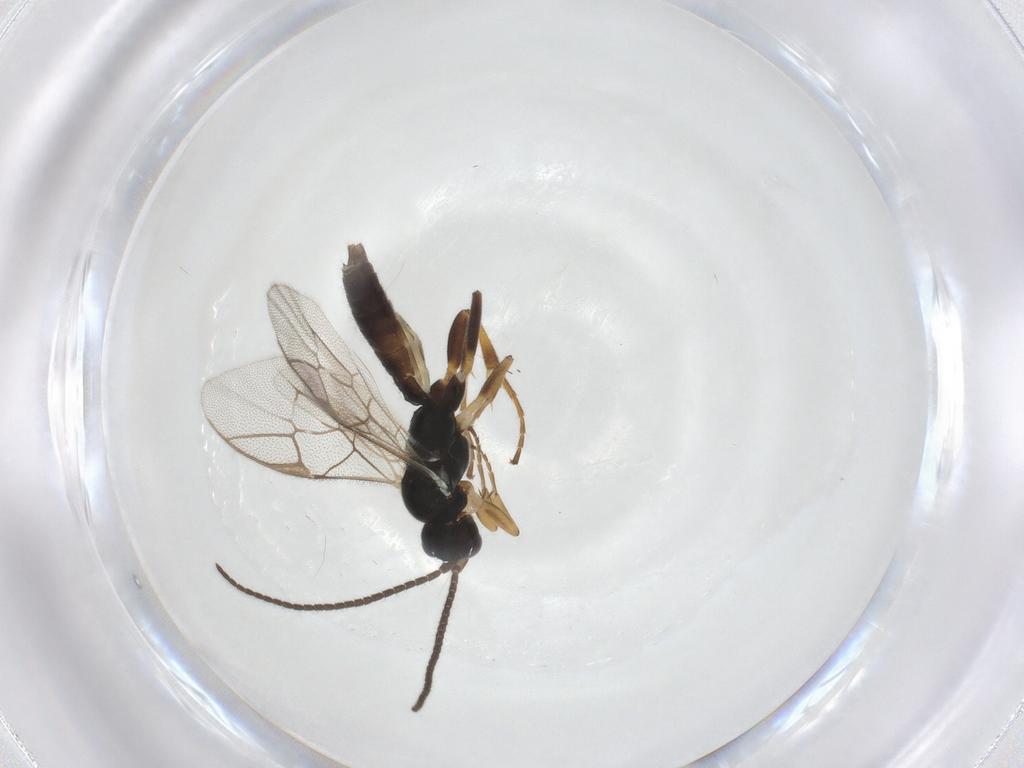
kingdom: Animalia
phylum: Arthropoda
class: Insecta
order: Hymenoptera
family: Ichneumonidae
